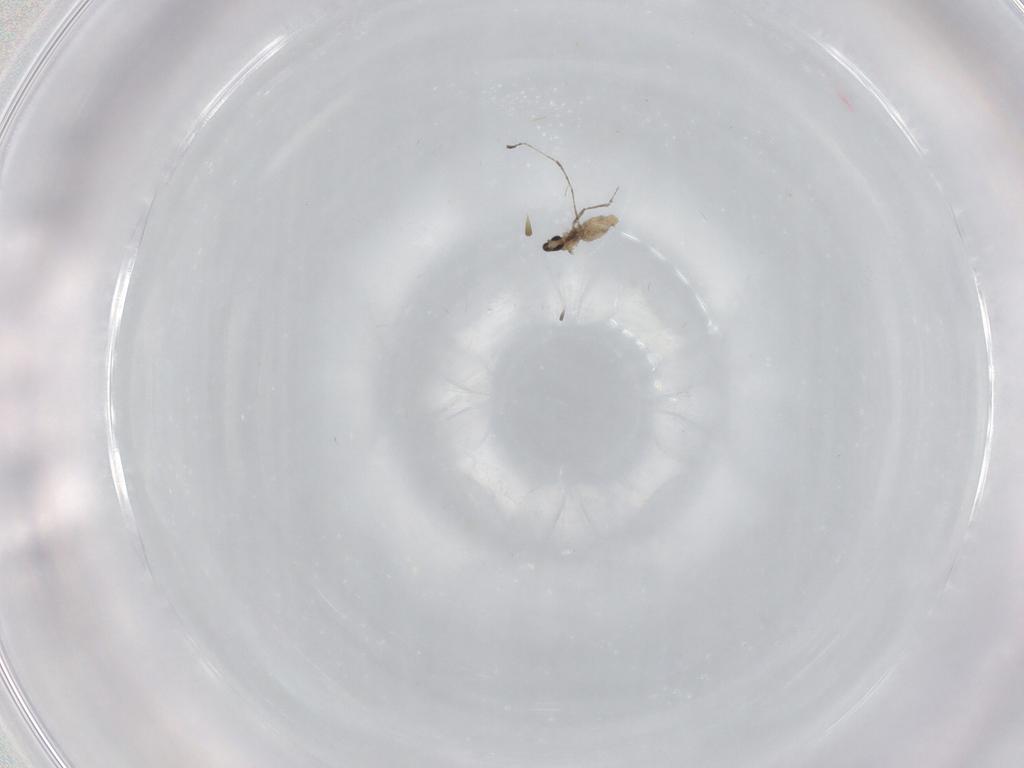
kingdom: Animalia
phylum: Arthropoda
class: Insecta
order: Diptera
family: Cecidomyiidae
